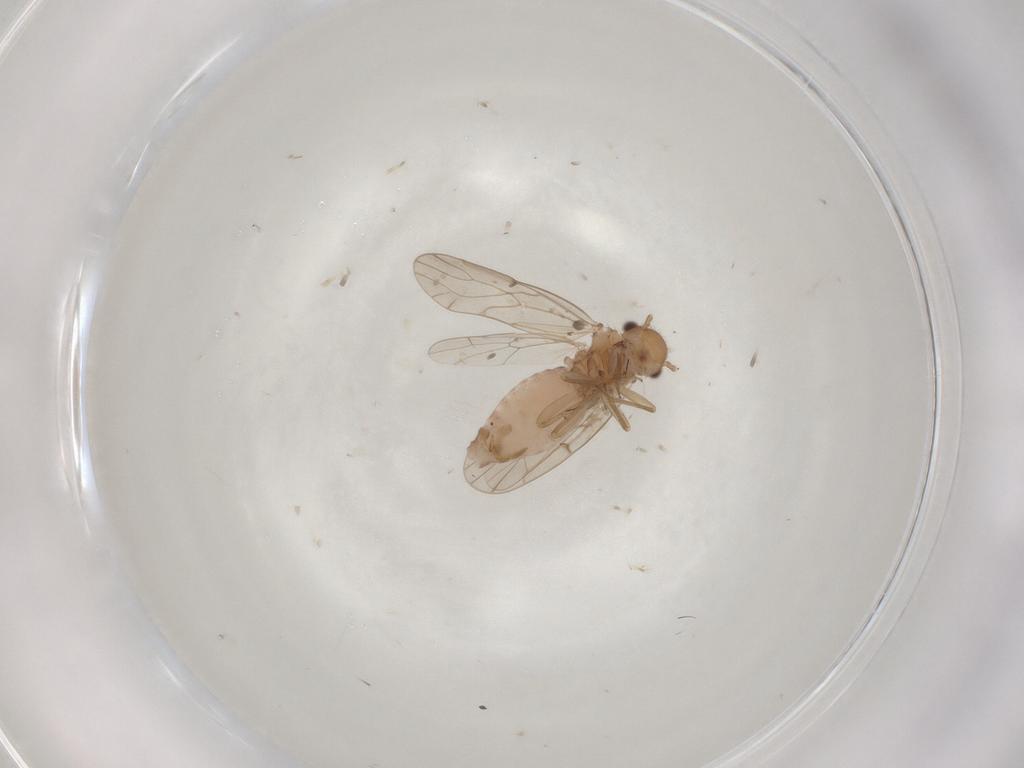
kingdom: Animalia
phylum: Arthropoda
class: Insecta
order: Psocodea
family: Ectopsocidae
